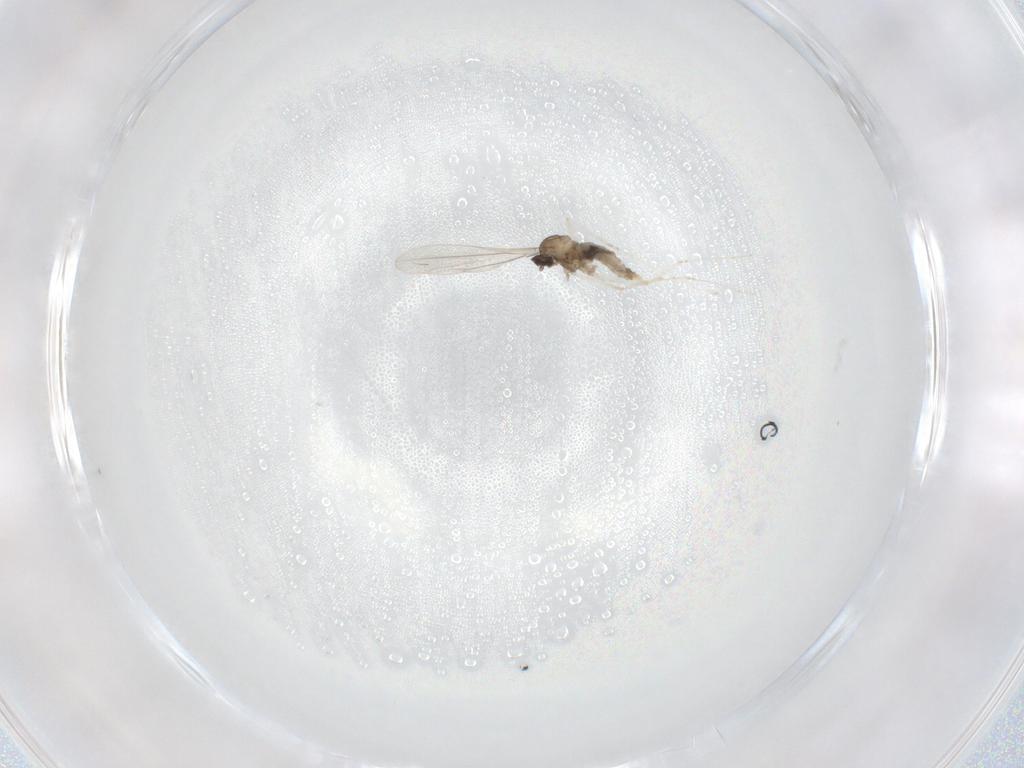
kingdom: Animalia
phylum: Arthropoda
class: Insecta
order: Diptera
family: Cecidomyiidae
